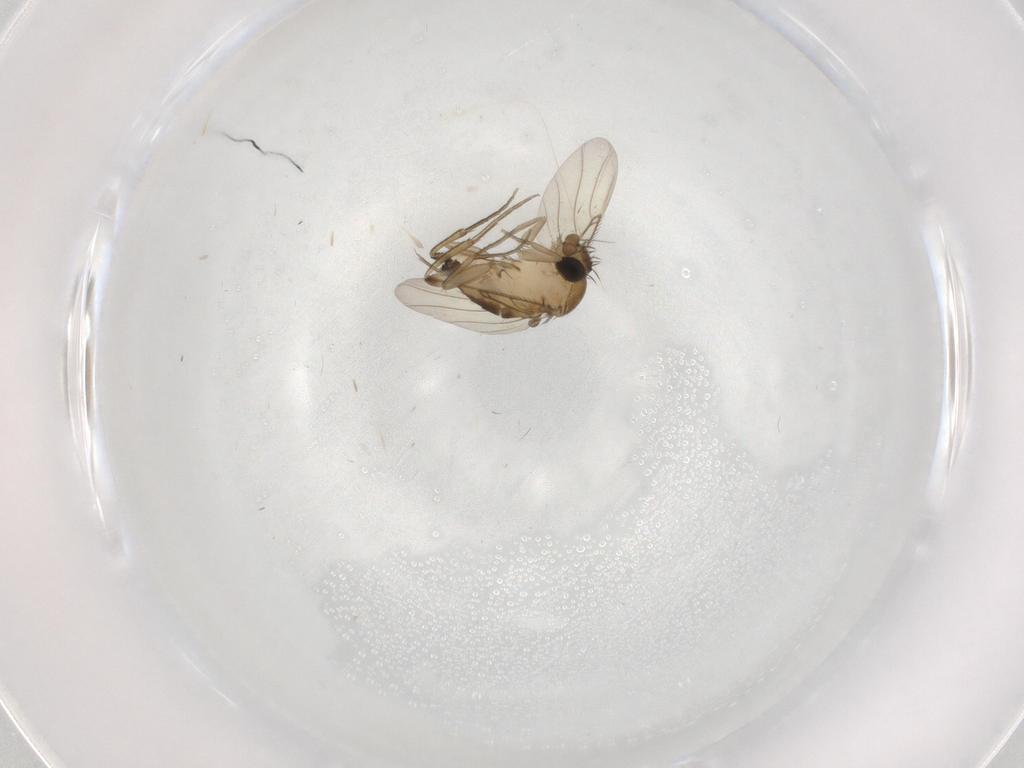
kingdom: Animalia
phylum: Arthropoda
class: Insecta
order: Diptera
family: Phoridae
